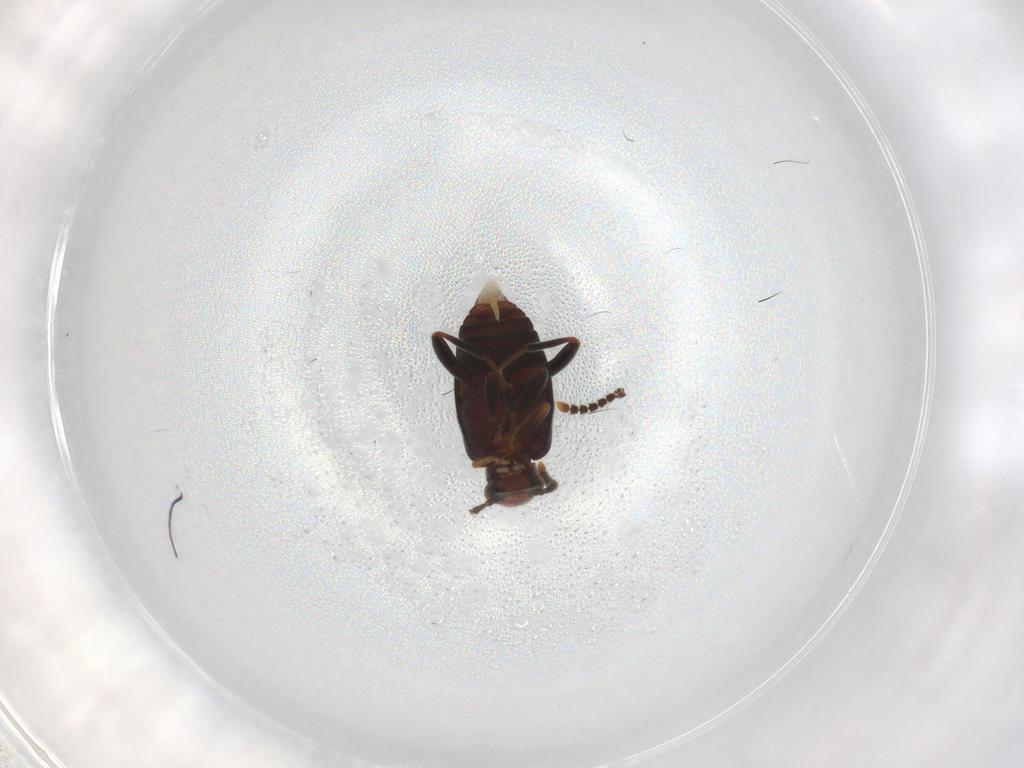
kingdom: Animalia
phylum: Arthropoda
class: Insecta
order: Coleoptera
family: Aderidae
